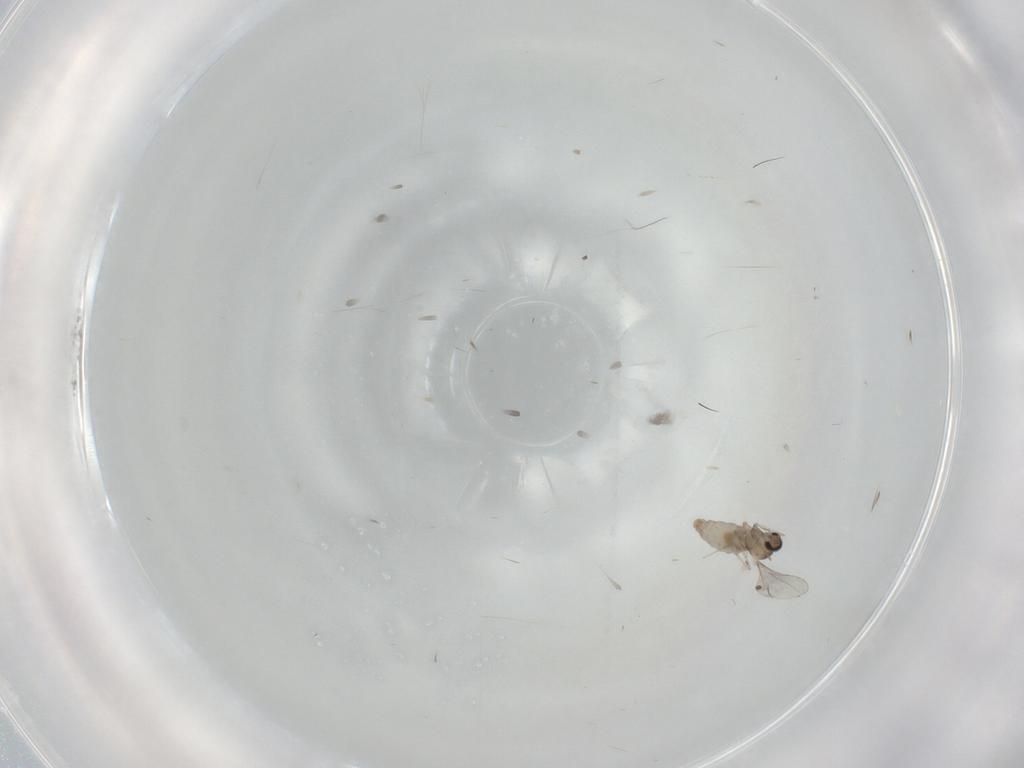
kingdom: Animalia
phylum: Arthropoda
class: Insecta
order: Diptera
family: Cecidomyiidae
